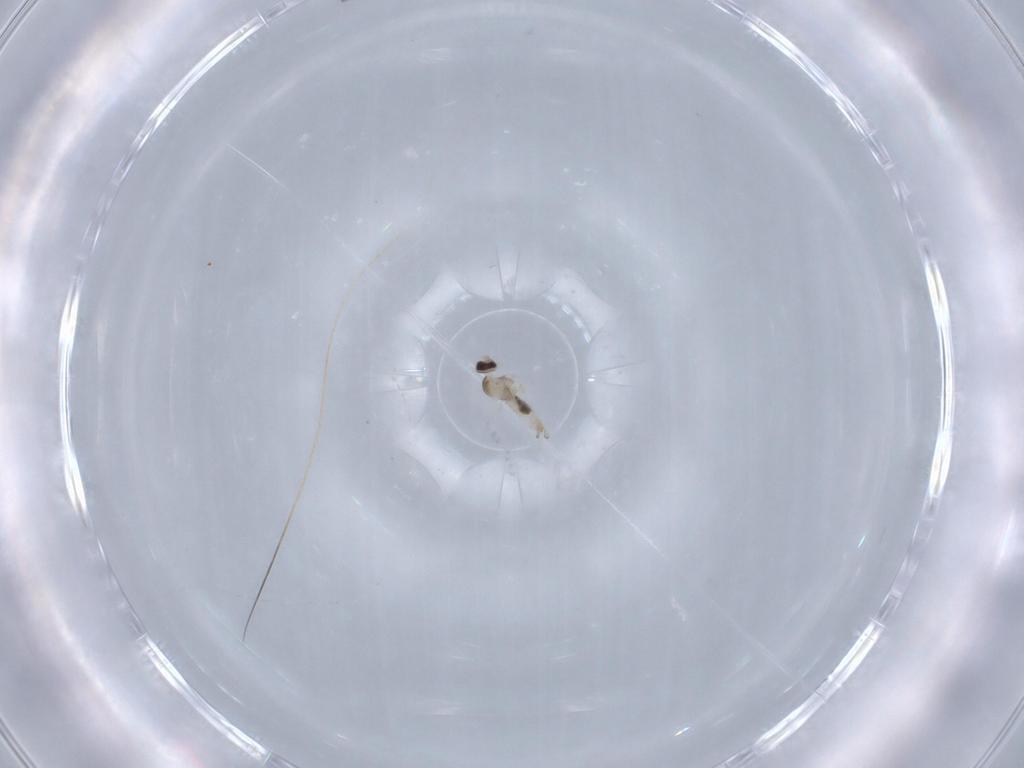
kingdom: Animalia
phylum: Arthropoda
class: Insecta
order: Diptera
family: Cecidomyiidae
